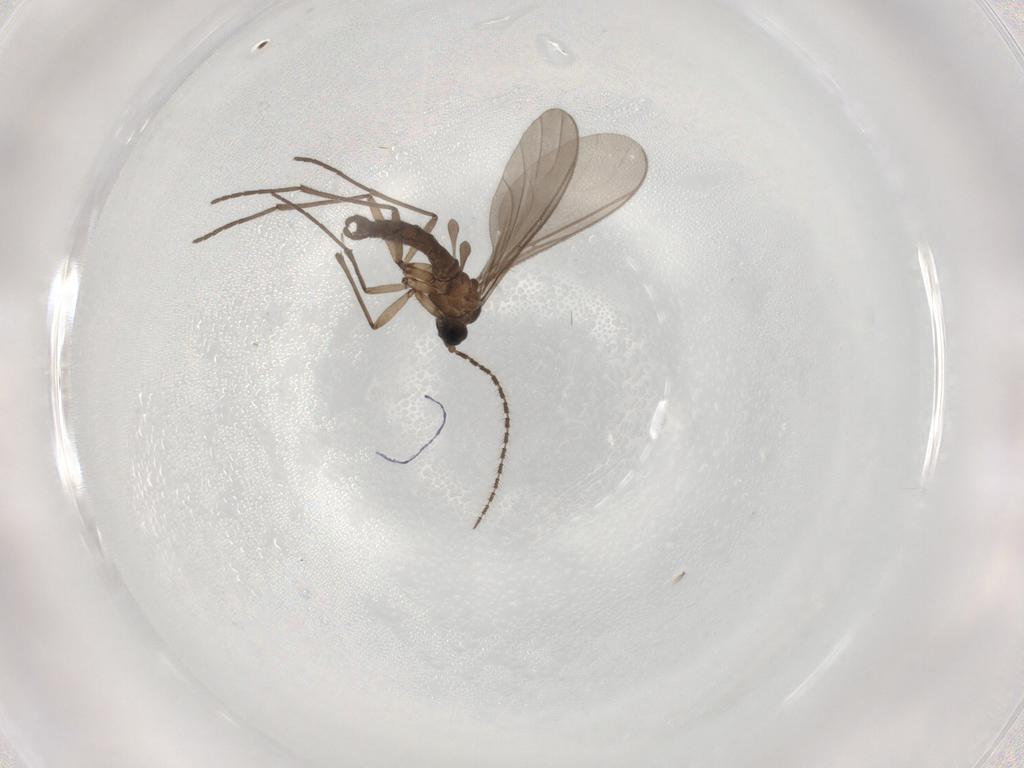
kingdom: Animalia
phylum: Arthropoda
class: Insecta
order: Diptera
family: Sciaridae
